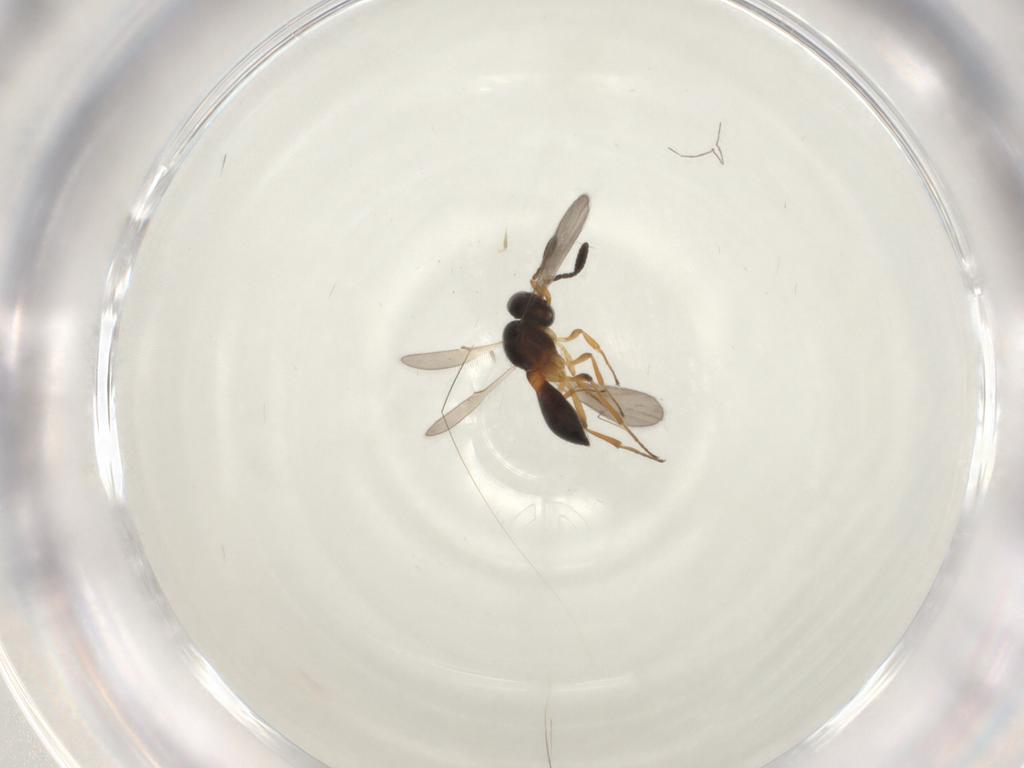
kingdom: Animalia
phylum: Arthropoda
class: Insecta
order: Hymenoptera
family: Scelionidae
